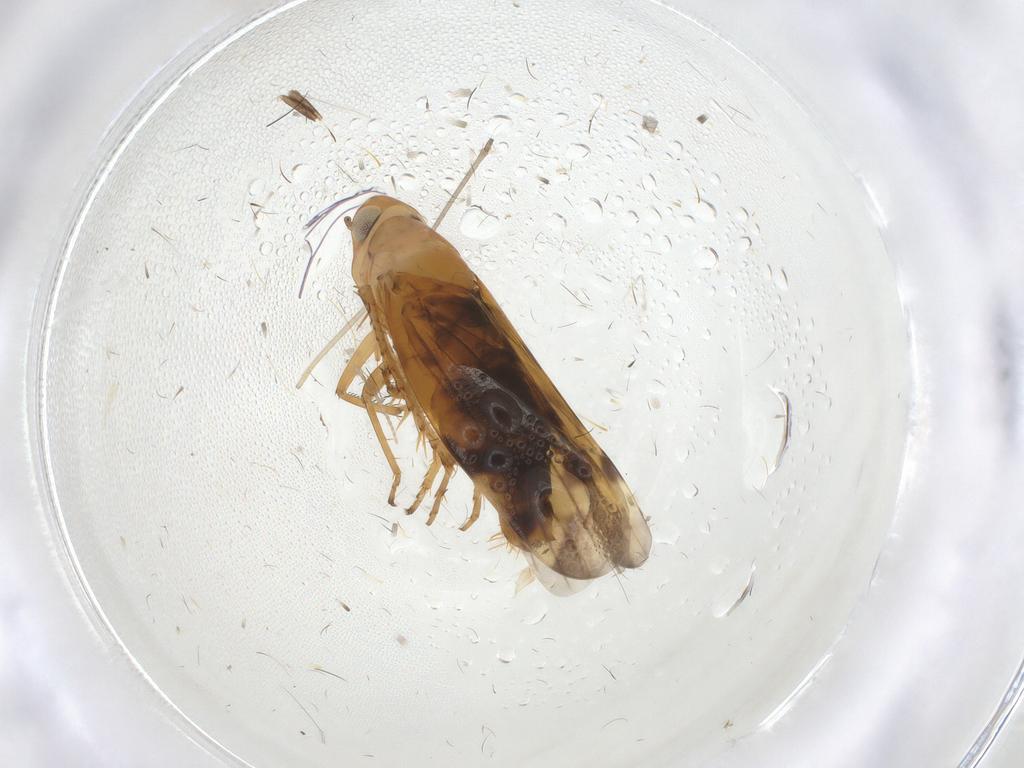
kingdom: Animalia
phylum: Arthropoda
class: Insecta
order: Hemiptera
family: Cicadellidae
